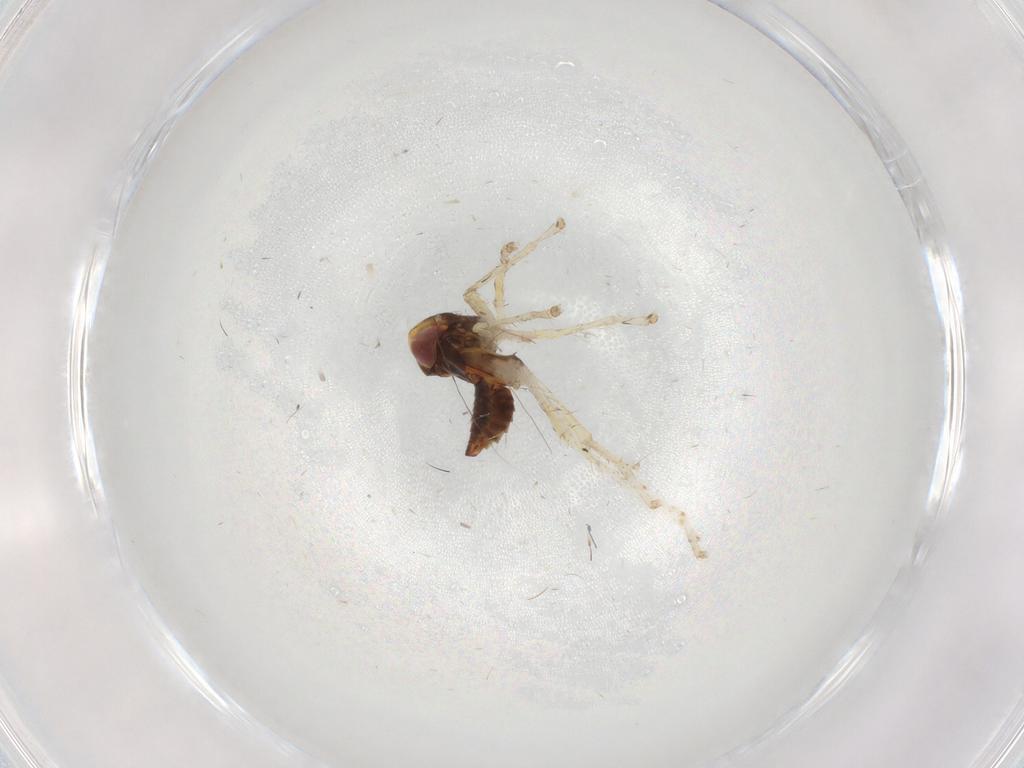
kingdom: Animalia
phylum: Arthropoda
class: Insecta
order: Hemiptera
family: Cicadellidae
